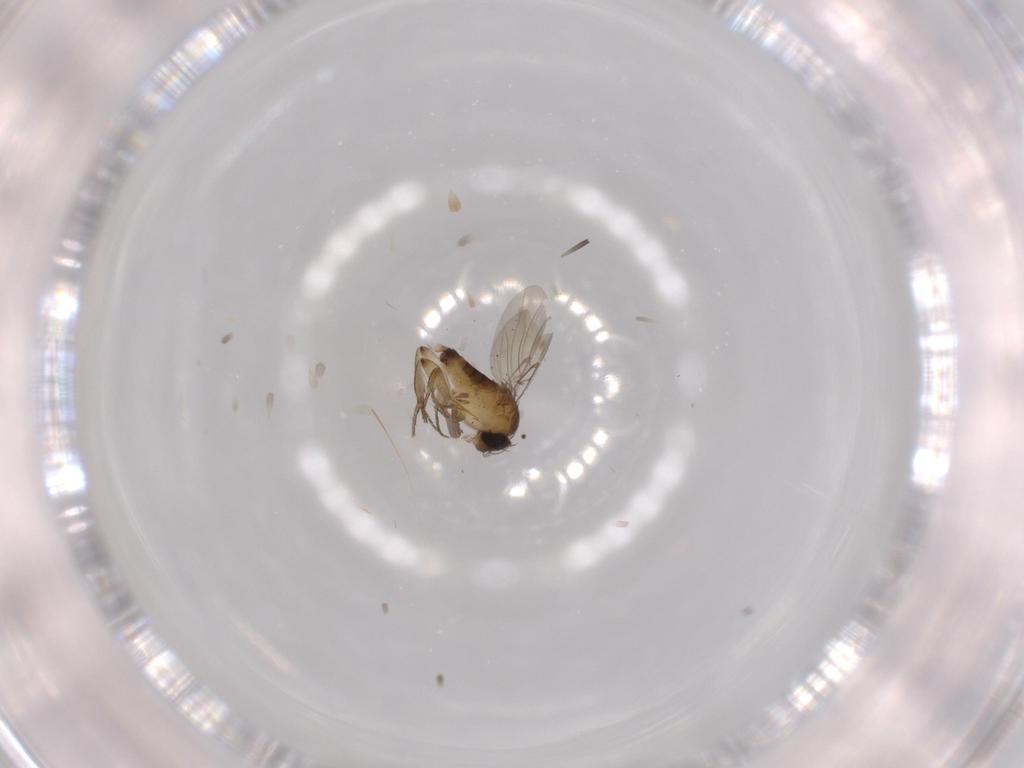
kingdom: Animalia
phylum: Arthropoda
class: Insecta
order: Diptera
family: Phoridae
